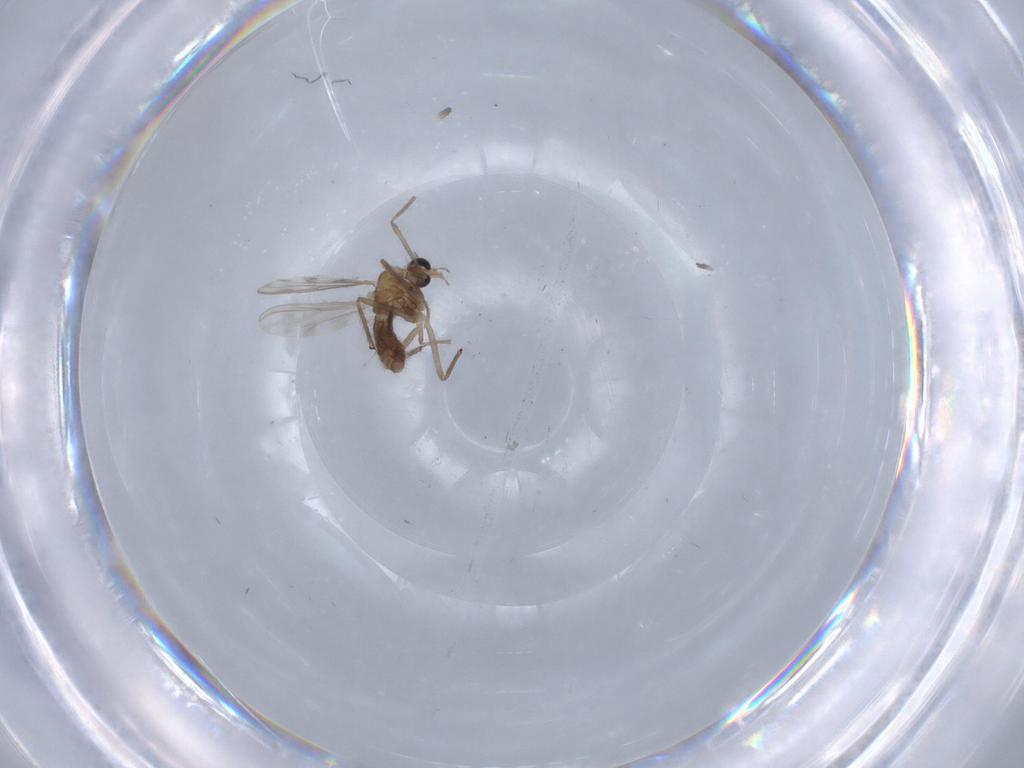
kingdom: Animalia
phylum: Arthropoda
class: Insecta
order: Diptera
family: Chironomidae
